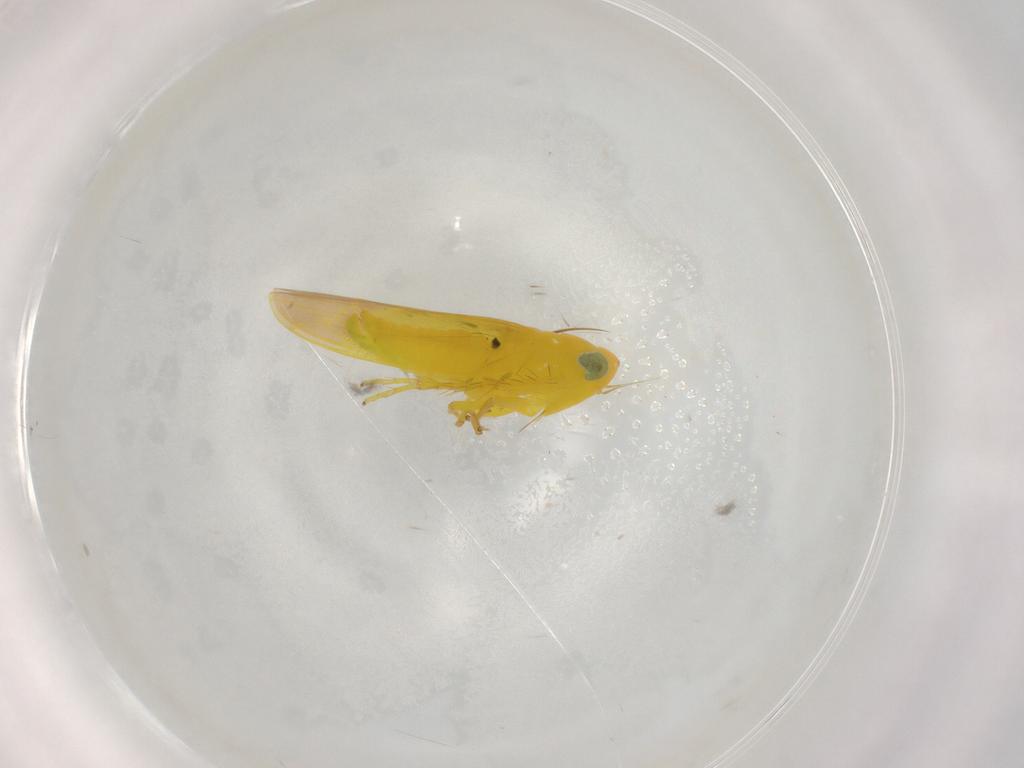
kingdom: Animalia
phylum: Arthropoda
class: Insecta
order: Hemiptera
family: Cicadellidae
